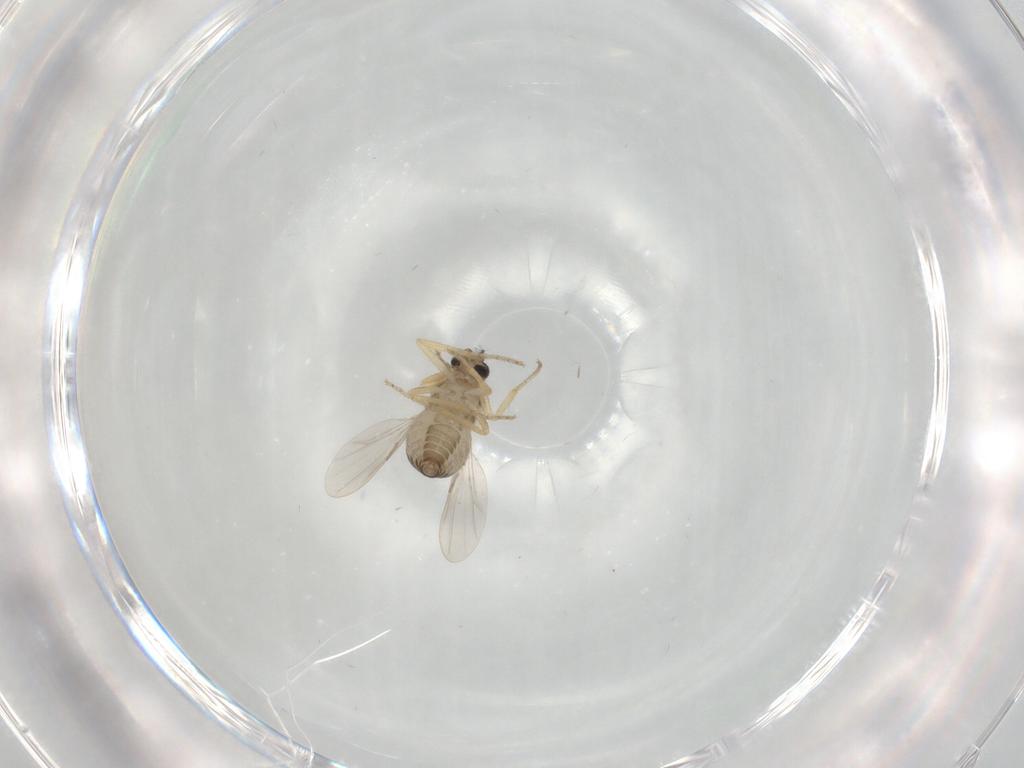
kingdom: Animalia
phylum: Arthropoda
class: Insecta
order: Diptera
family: Ceratopogonidae
